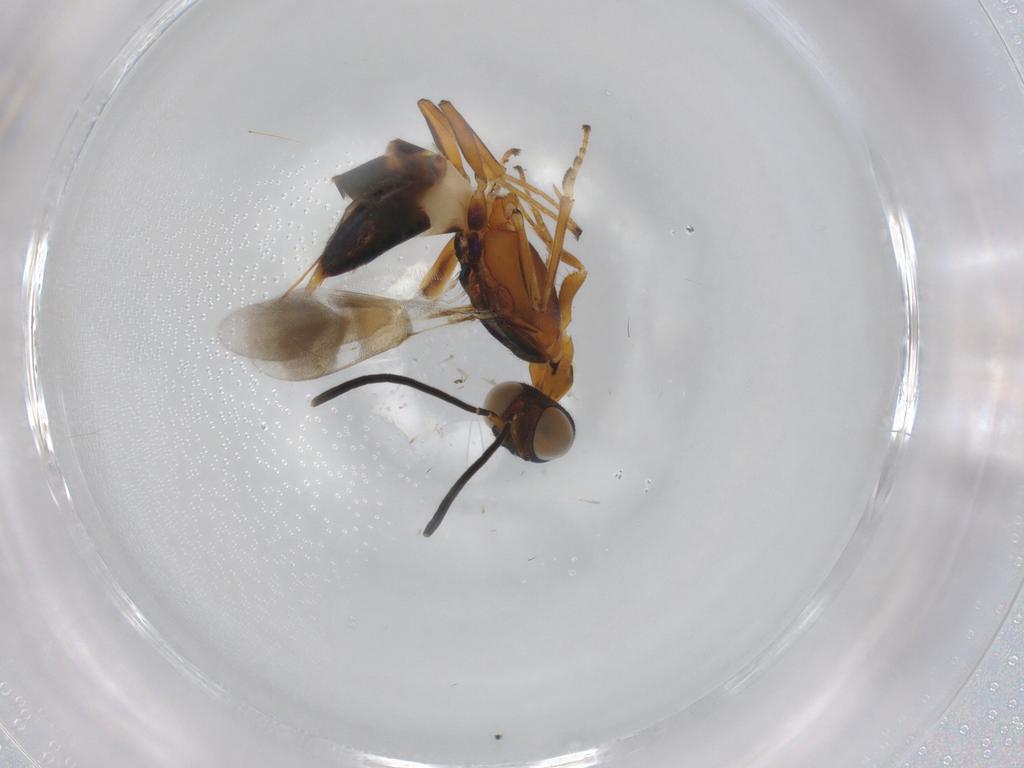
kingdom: Animalia
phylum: Arthropoda
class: Insecta
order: Hymenoptera
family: Eupelmidae
